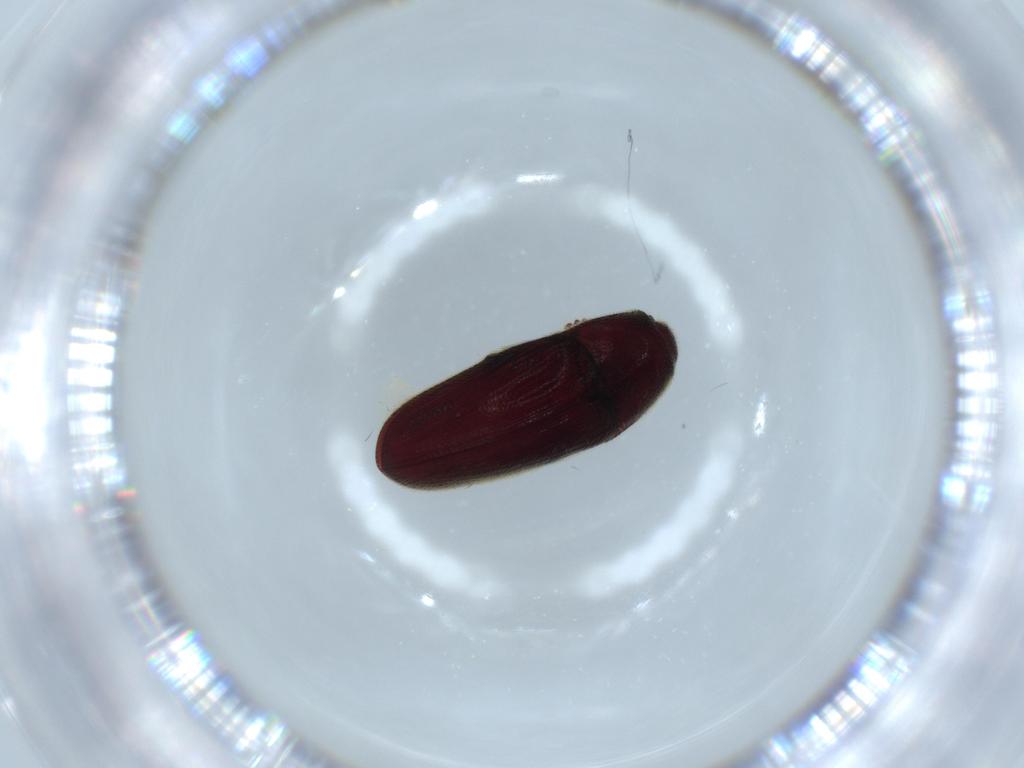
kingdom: Animalia
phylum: Arthropoda
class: Insecta
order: Coleoptera
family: Throscidae
